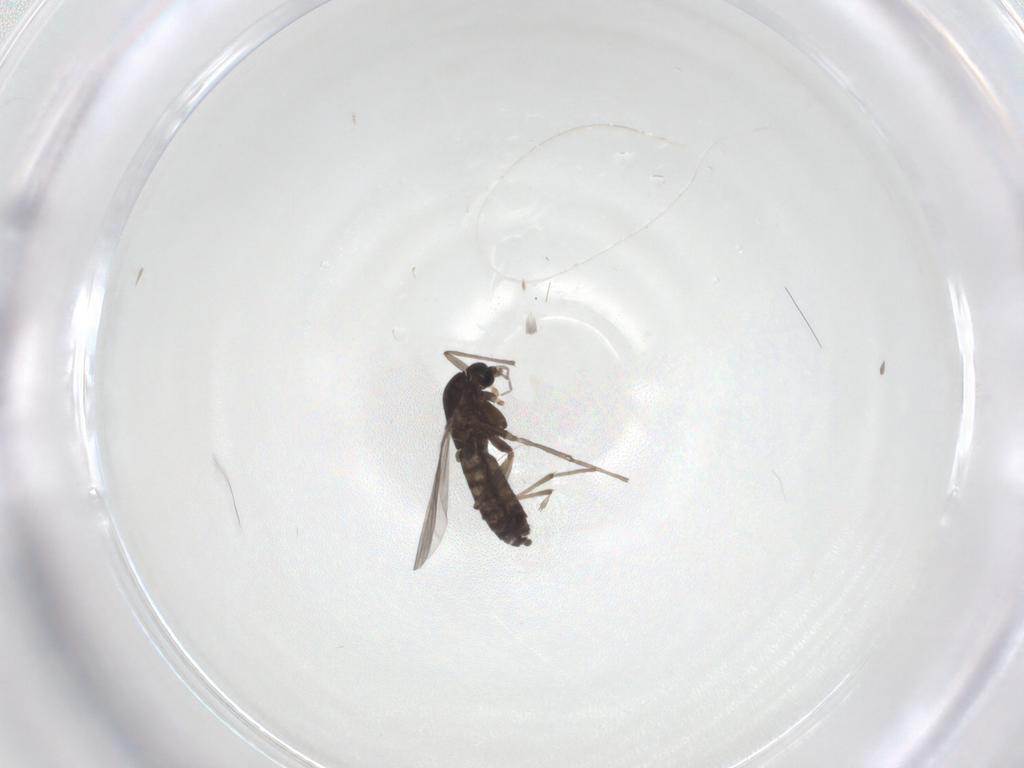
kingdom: Animalia
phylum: Arthropoda
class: Insecta
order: Diptera
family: Chironomidae
